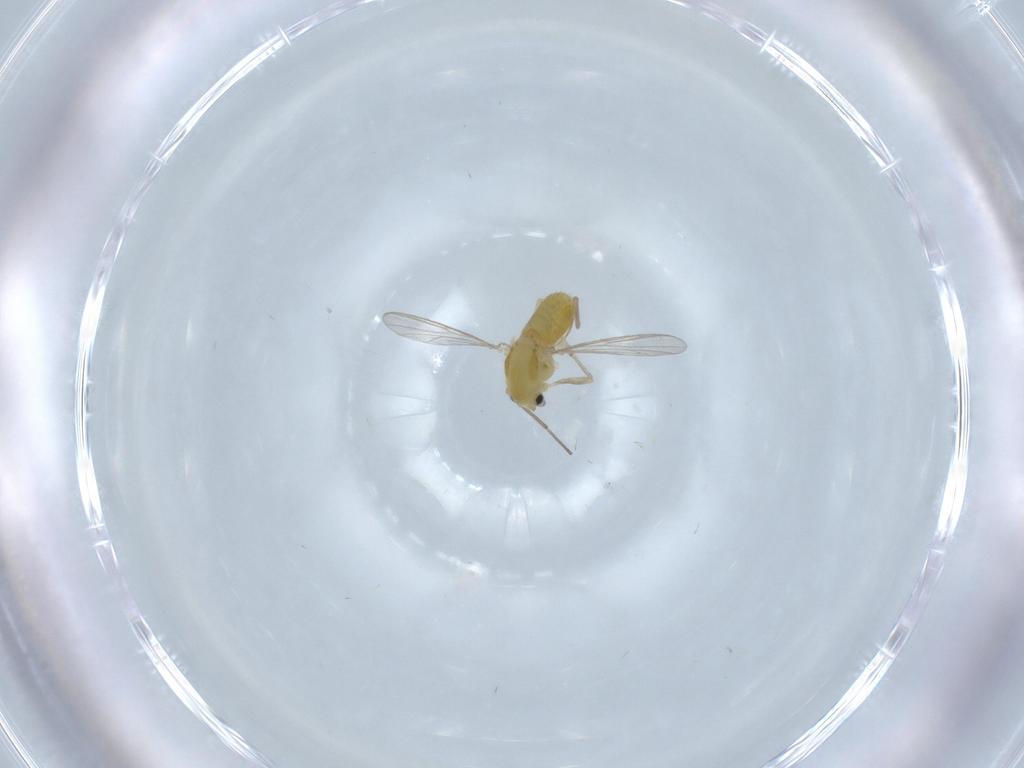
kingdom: Animalia
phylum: Arthropoda
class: Insecta
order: Diptera
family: Chironomidae
